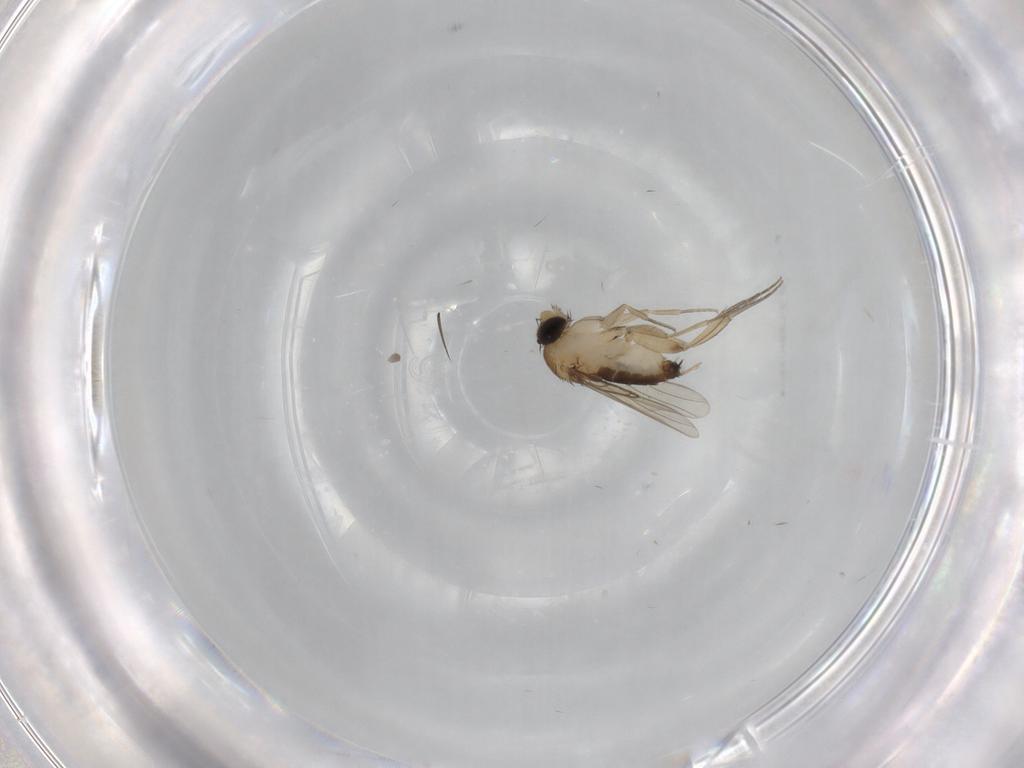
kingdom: Animalia
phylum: Arthropoda
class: Insecta
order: Diptera
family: Phoridae
